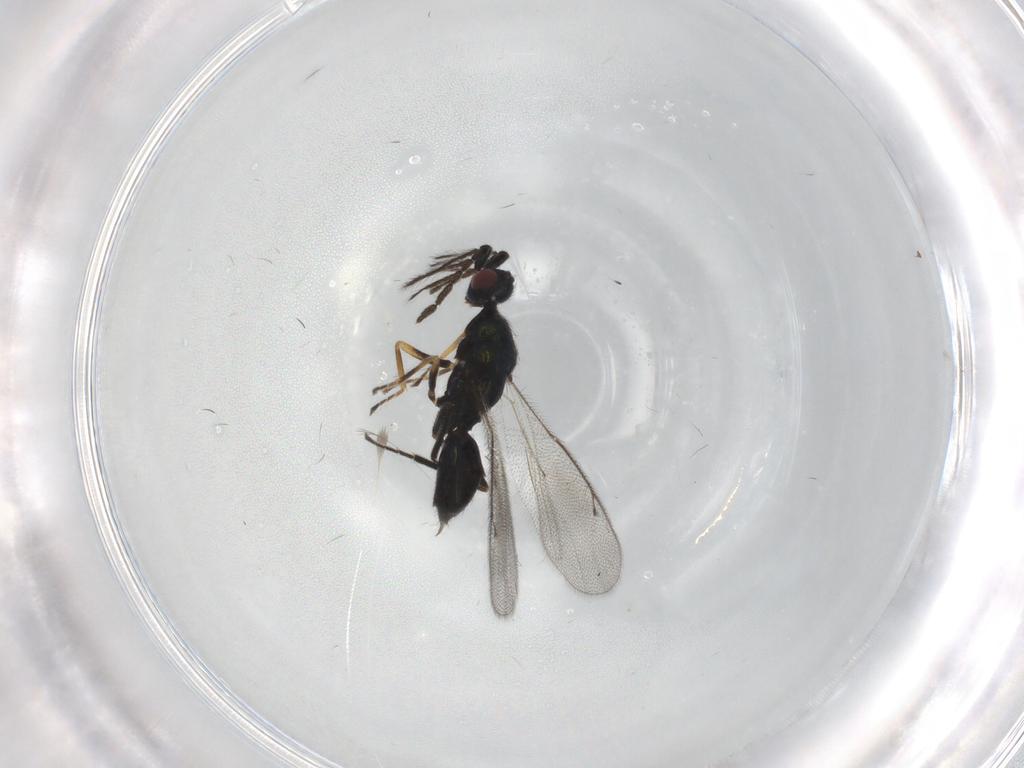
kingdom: Animalia
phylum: Arthropoda
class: Insecta
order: Hymenoptera
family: Eulophidae
